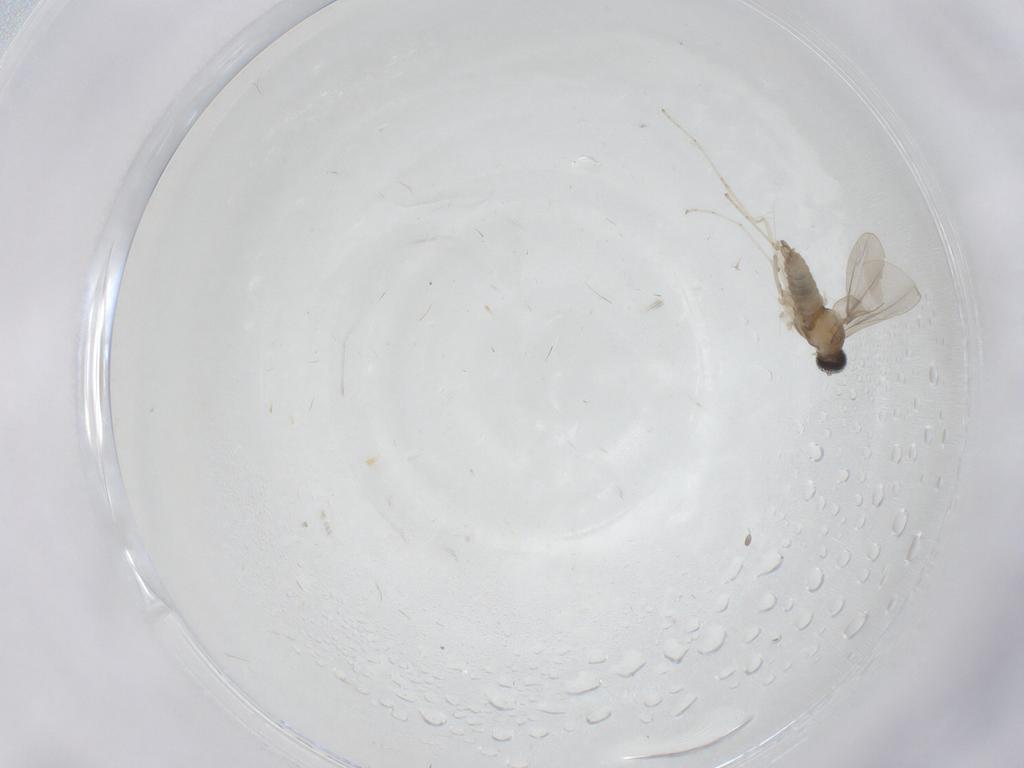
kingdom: Animalia
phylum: Arthropoda
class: Insecta
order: Diptera
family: Cecidomyiidae
